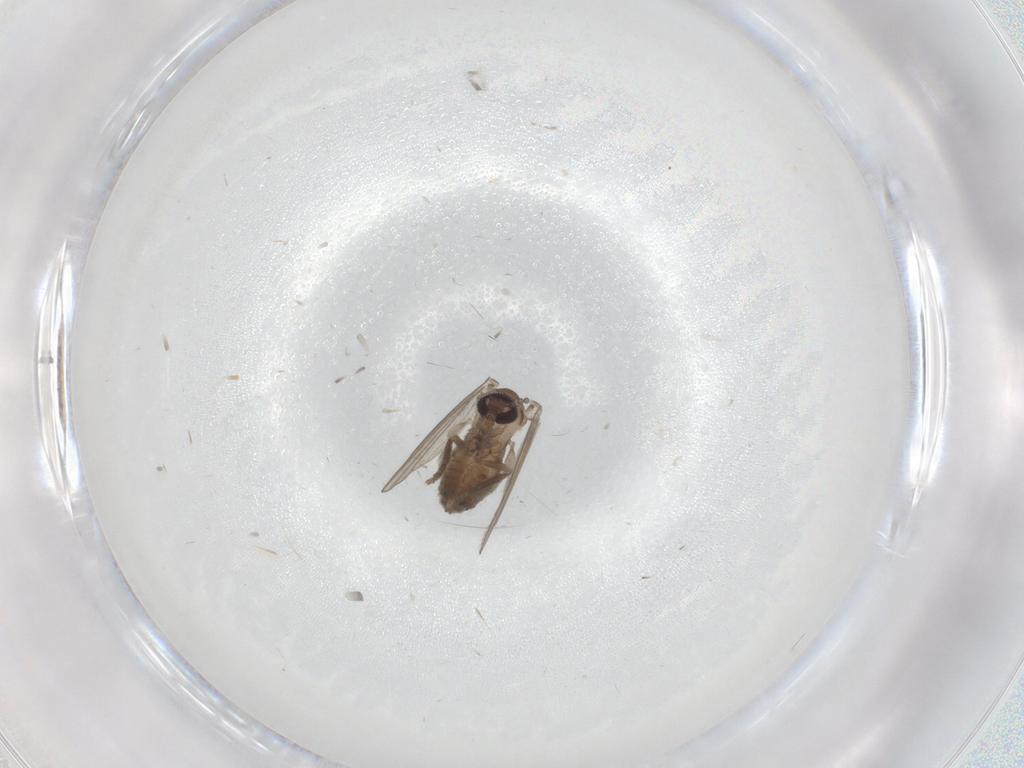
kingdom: Animalia
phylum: Arthropoda
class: Insecta
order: Diptera
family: Psychodidae
